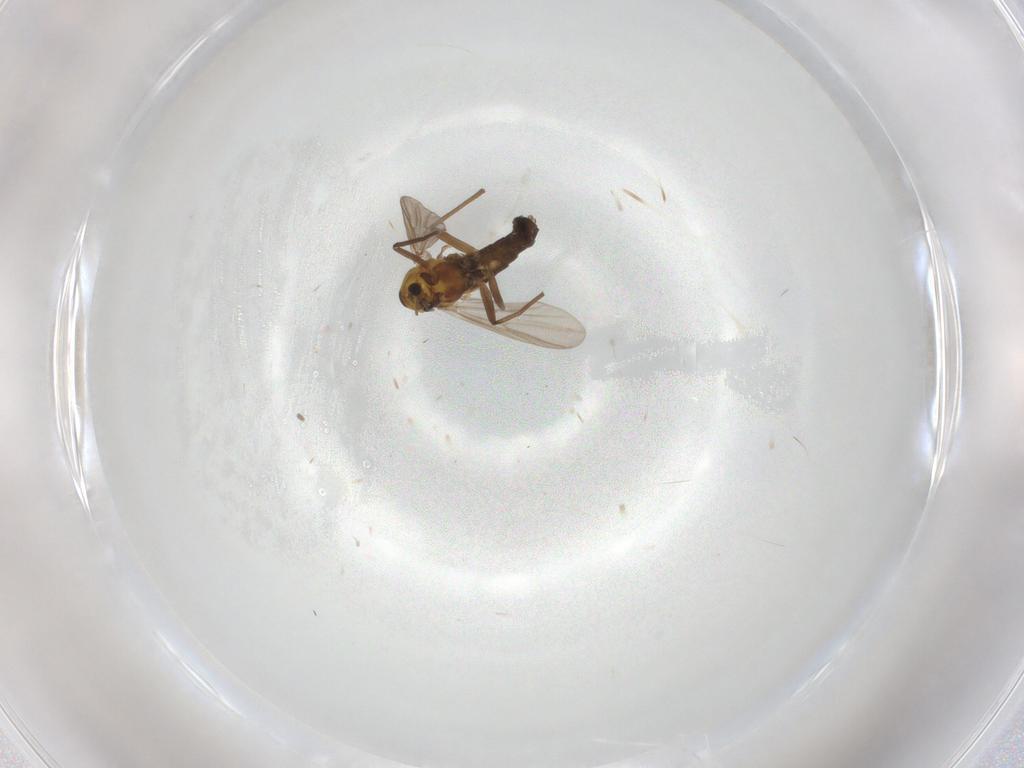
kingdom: Animalia
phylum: Arthropoda
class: Insecta
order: Diptera
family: Chironomidae
